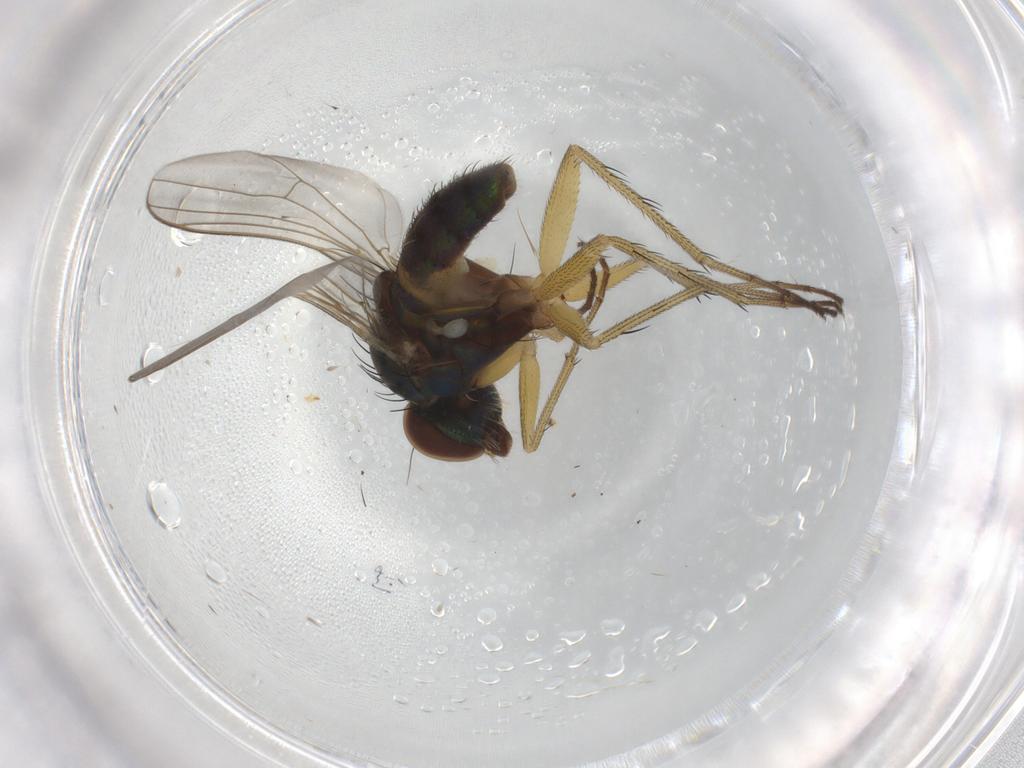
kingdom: Animalia
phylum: Arthropoda
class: Insecta
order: Diptera
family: Dolichopodidae
